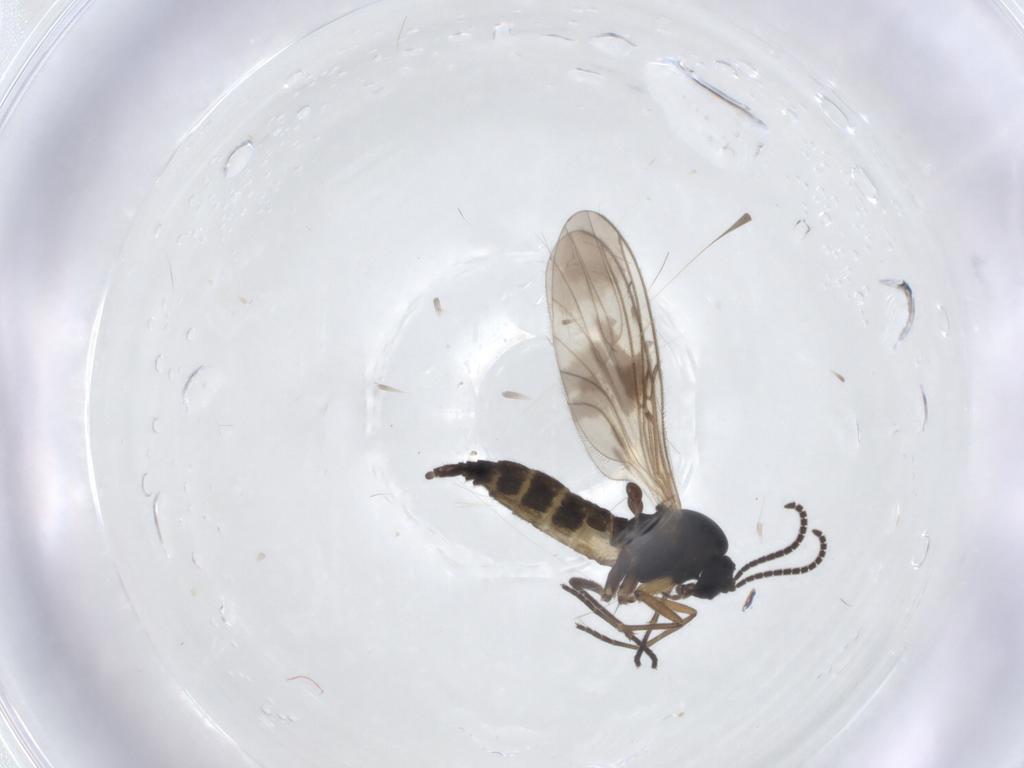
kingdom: Animalia
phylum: Arthropoda
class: Insecta
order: Diptera
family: Sciaridae
